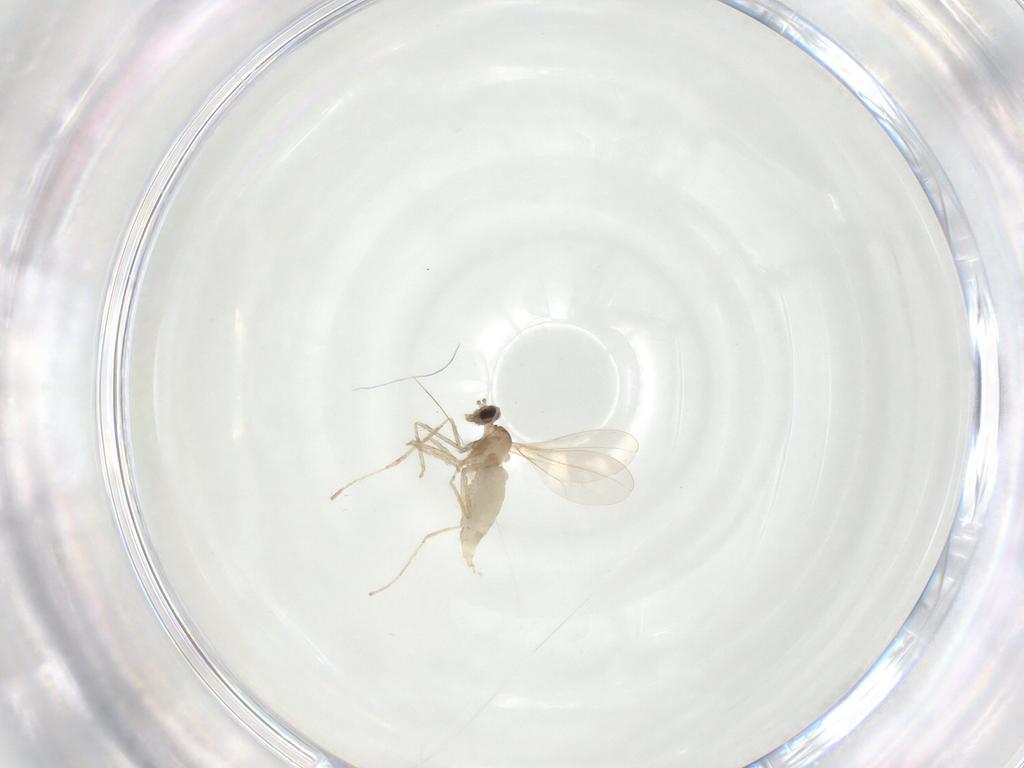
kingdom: Animalia
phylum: Arthropoda
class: Insecta
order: Diptera
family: Cecidomyiidae
